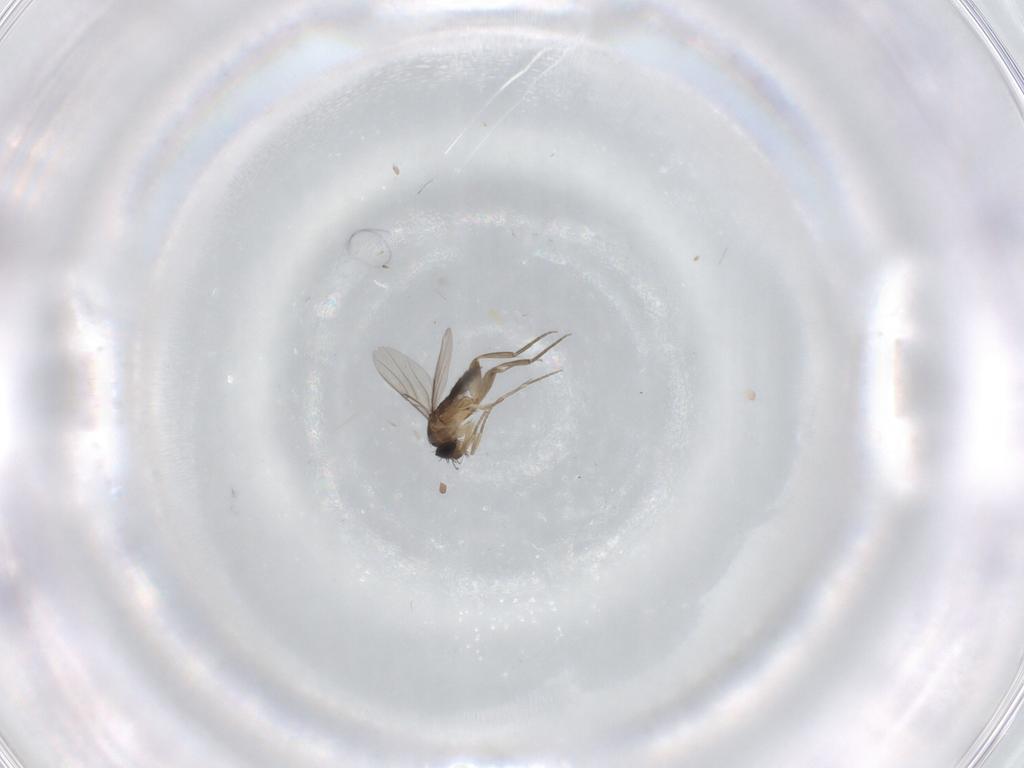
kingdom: Animalia
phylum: Arthropoda
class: Insecta
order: Diptera
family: Phoridae
